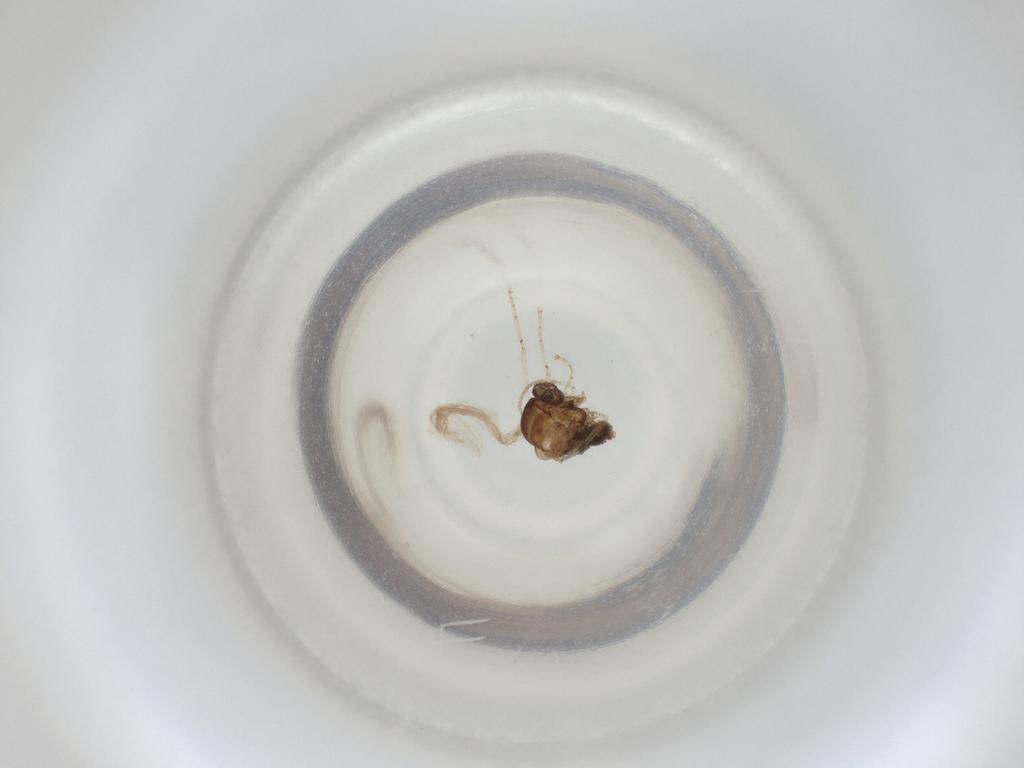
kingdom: Animalia
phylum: Arthropoda
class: Insecta
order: Diptera
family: Cecidomyiidae
